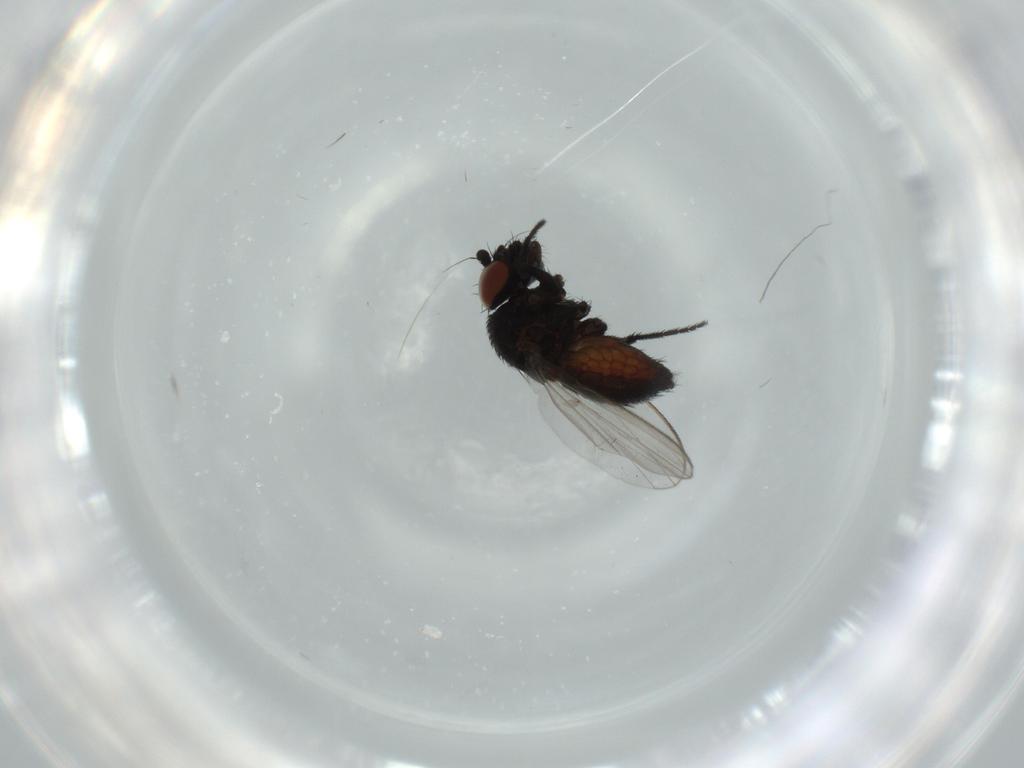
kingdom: Animalia
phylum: Arthropoda
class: Insecta
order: Diptera
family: Milichiidae
